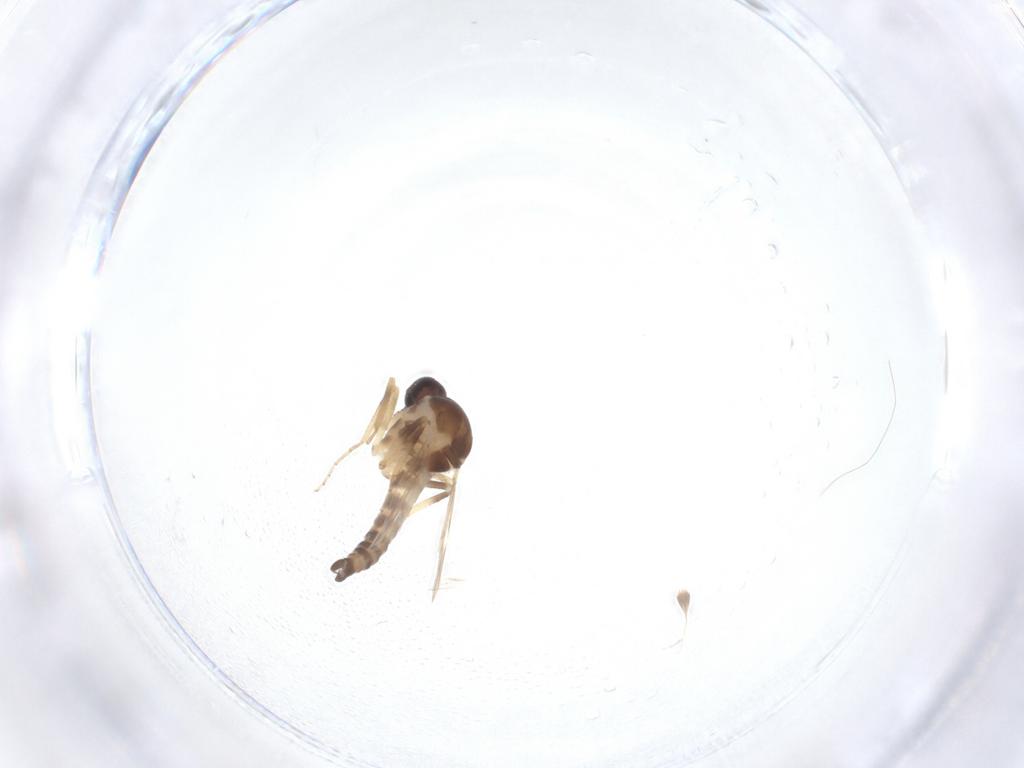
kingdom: Animalia
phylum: Arthropoda
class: Insecta
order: Diptera
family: Ceratopogonidae
